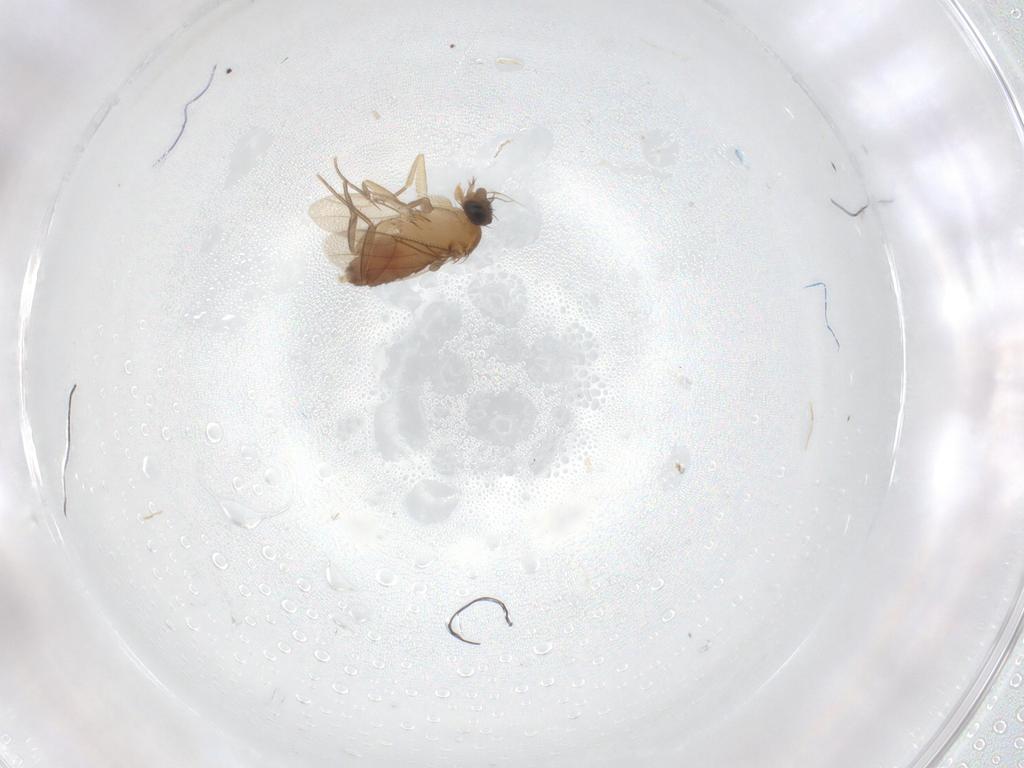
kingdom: Animalia
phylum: Arthropoda
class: Insecta
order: Diptera
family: Phoridae
